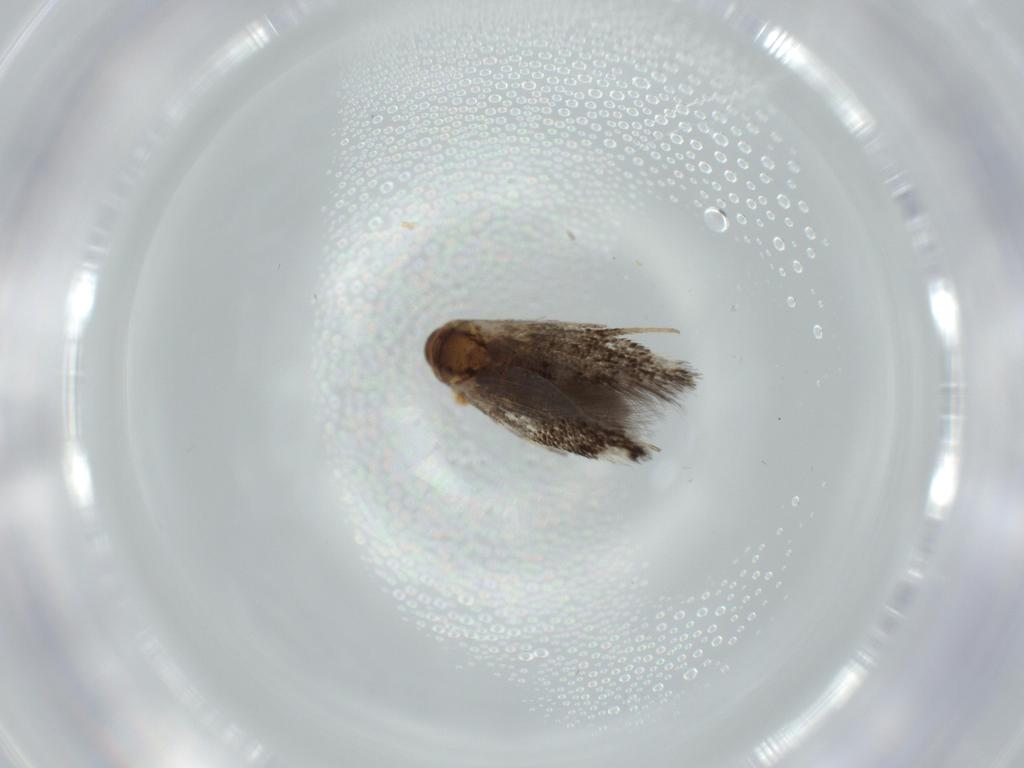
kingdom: Animalia
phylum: Arthropoda
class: Insecta
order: Lepidoptera
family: Cosmopterigidae
